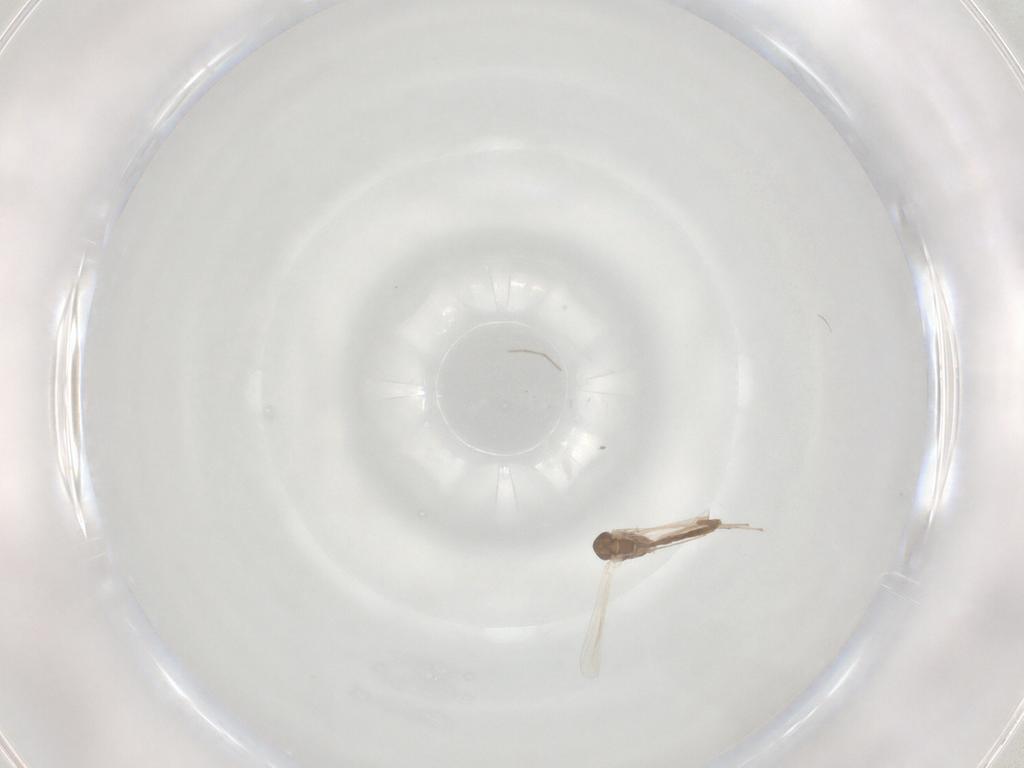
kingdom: Animalia
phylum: Arthropoda
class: Insecta
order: Diptera
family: Chironomidae
